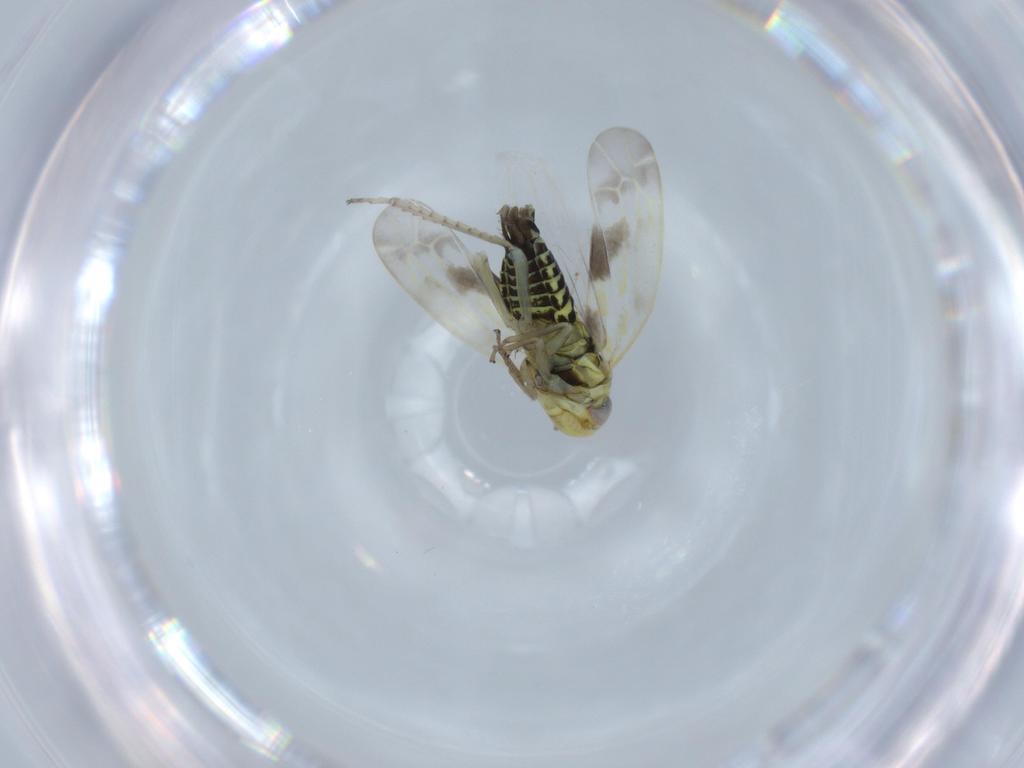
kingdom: Animalia
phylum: Arthropoda
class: Insecta
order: Hemiptera
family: Cicadellidae
